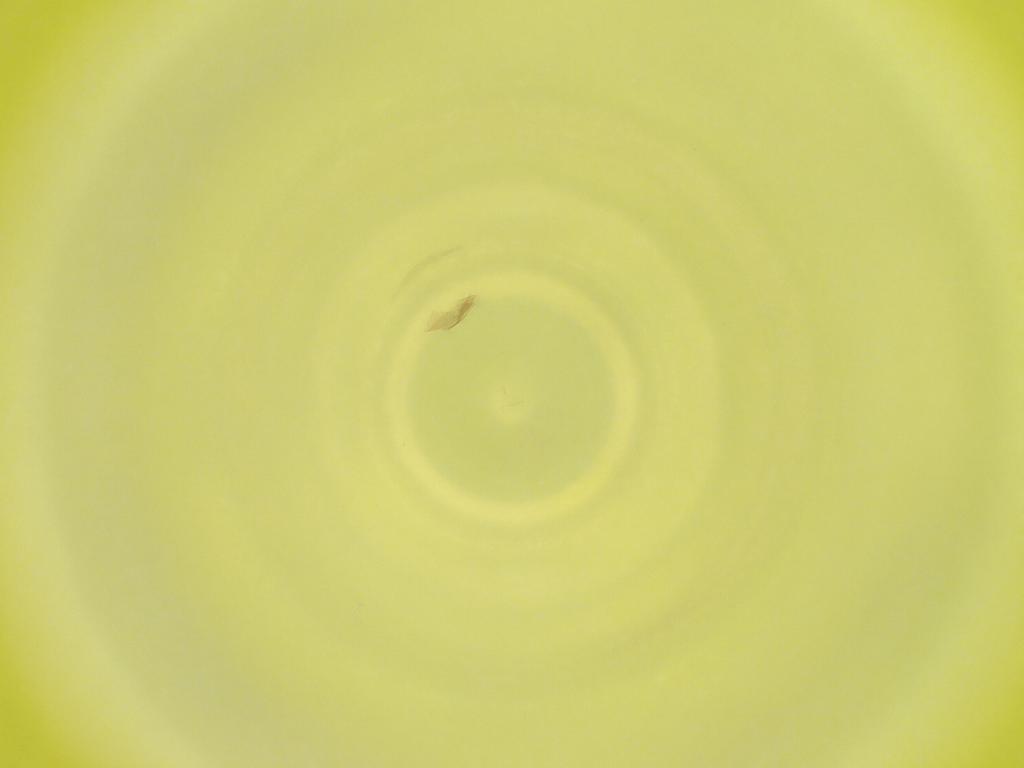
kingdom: Animalia
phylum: Arthropoda
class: Insecta
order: Diptera
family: Cecidomyiidae
